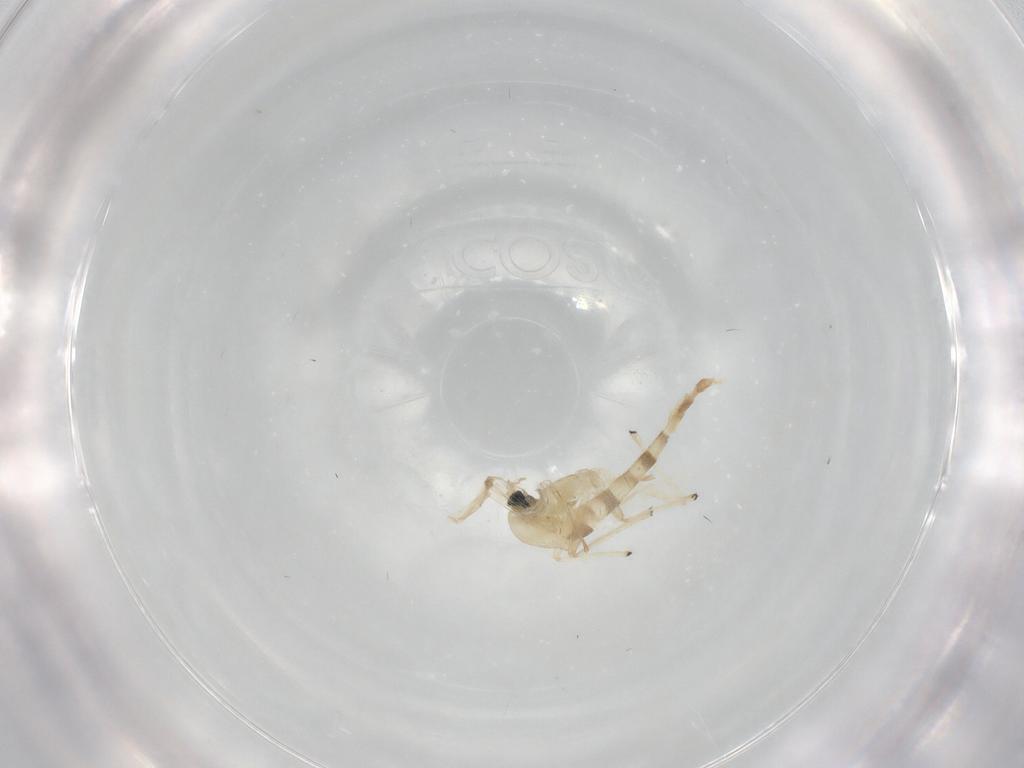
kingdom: Animalia
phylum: Arthropoda
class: Insecta
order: Diptera
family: Chironomidae
